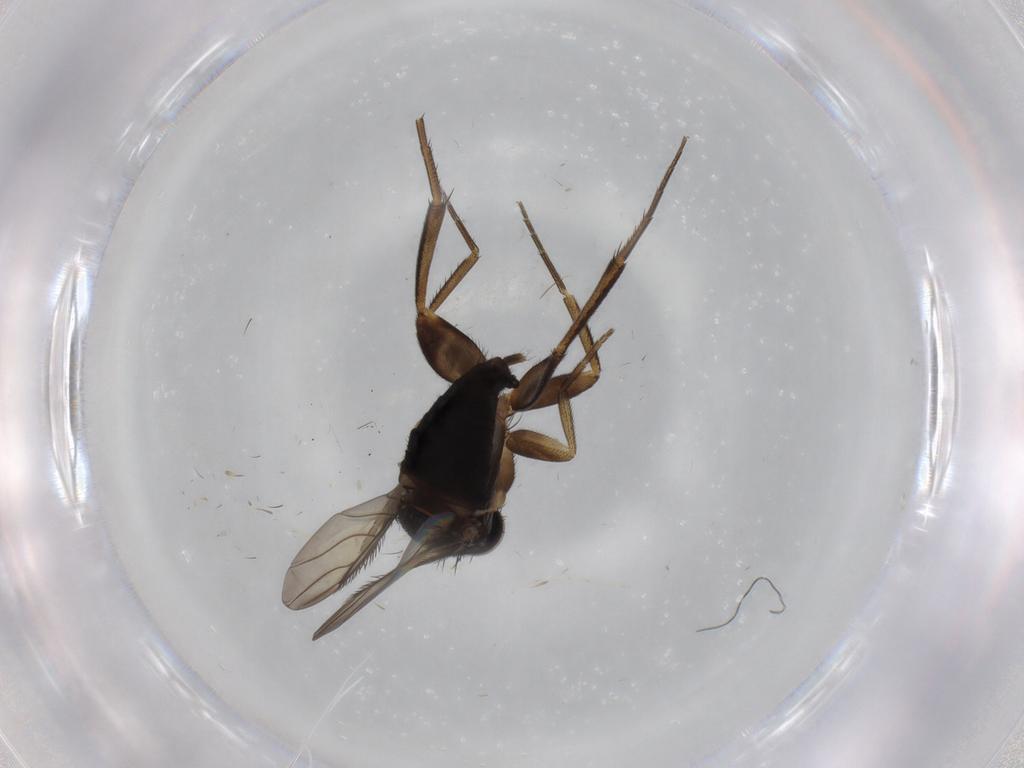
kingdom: Animalia
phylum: Arthropoda
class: Insecta
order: Diptera
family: Phoridae
